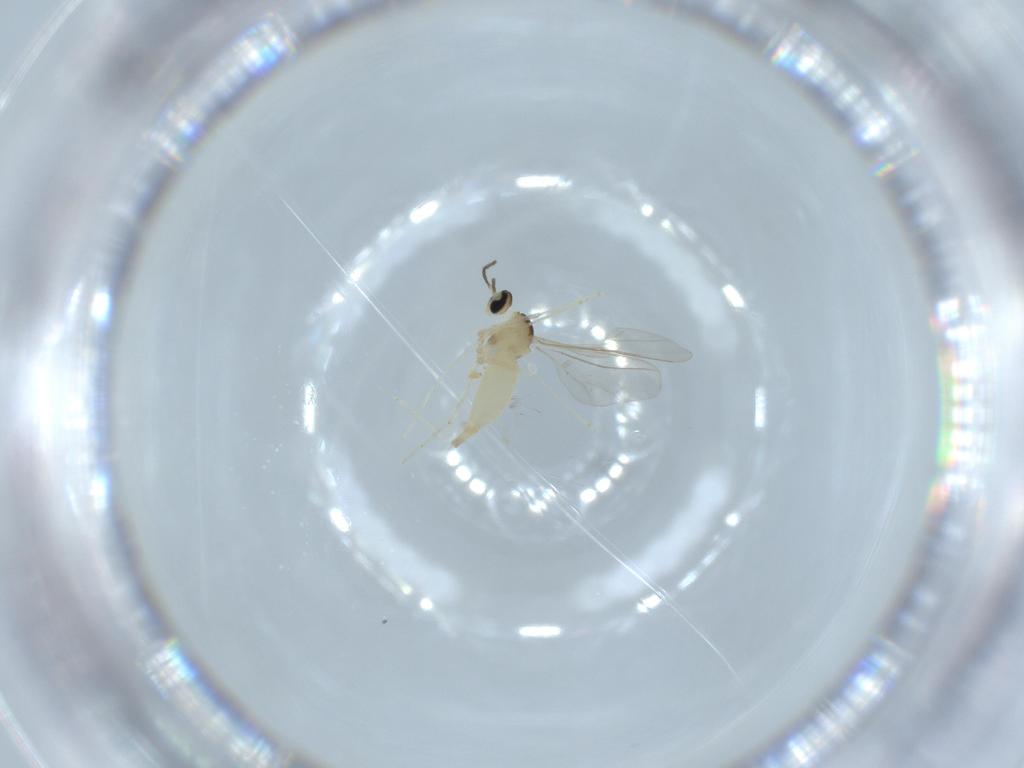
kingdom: Animalia
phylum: Arthropoda
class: Insecta
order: Diptera
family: Cecidomyiidae
